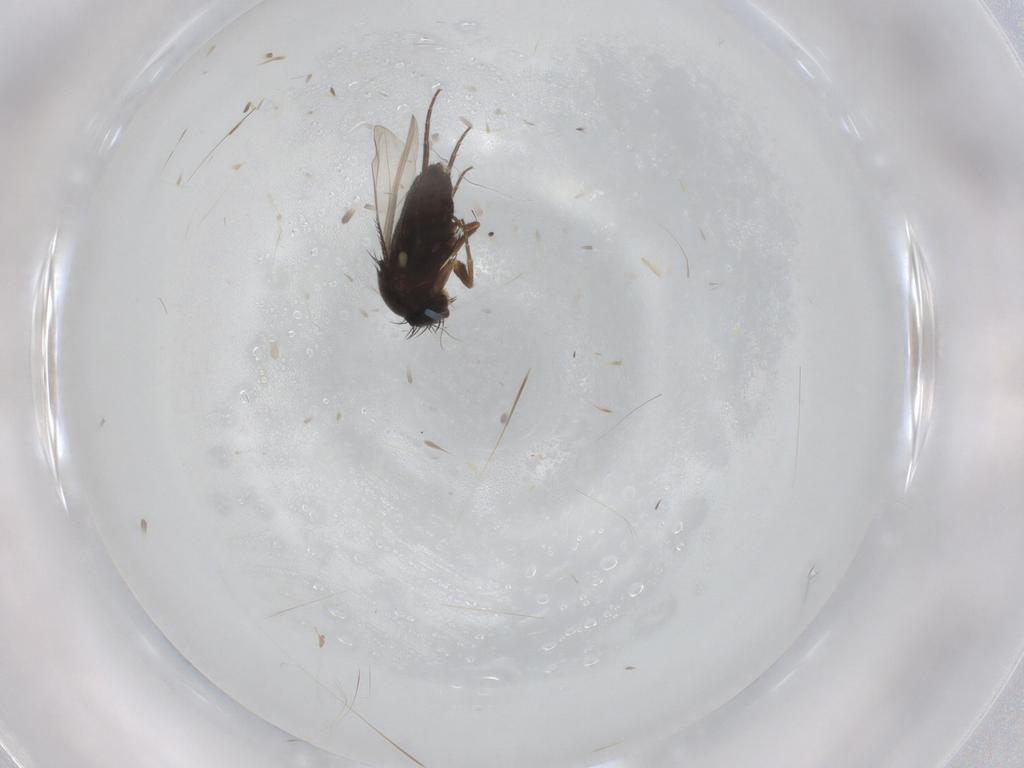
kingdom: Animalia
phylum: Arthropoda
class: Insecta
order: Diptera
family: Phoridae
